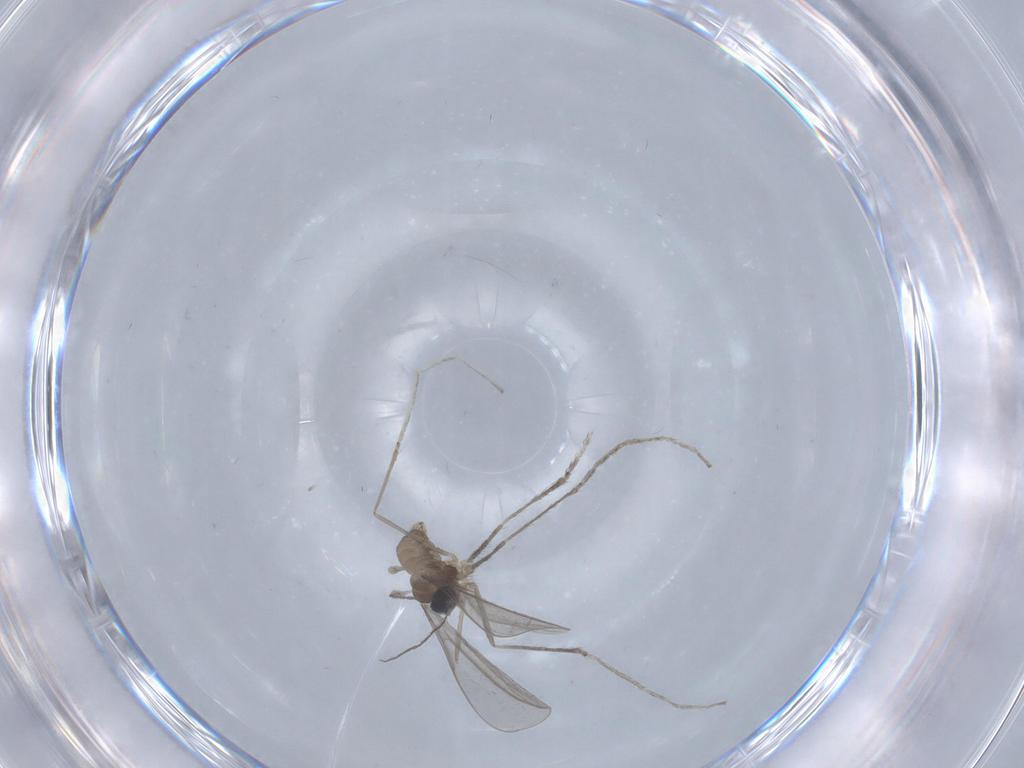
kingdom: Animalia
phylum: Arthropoda
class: Insecta
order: Diptera
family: Cecidomyiidae
